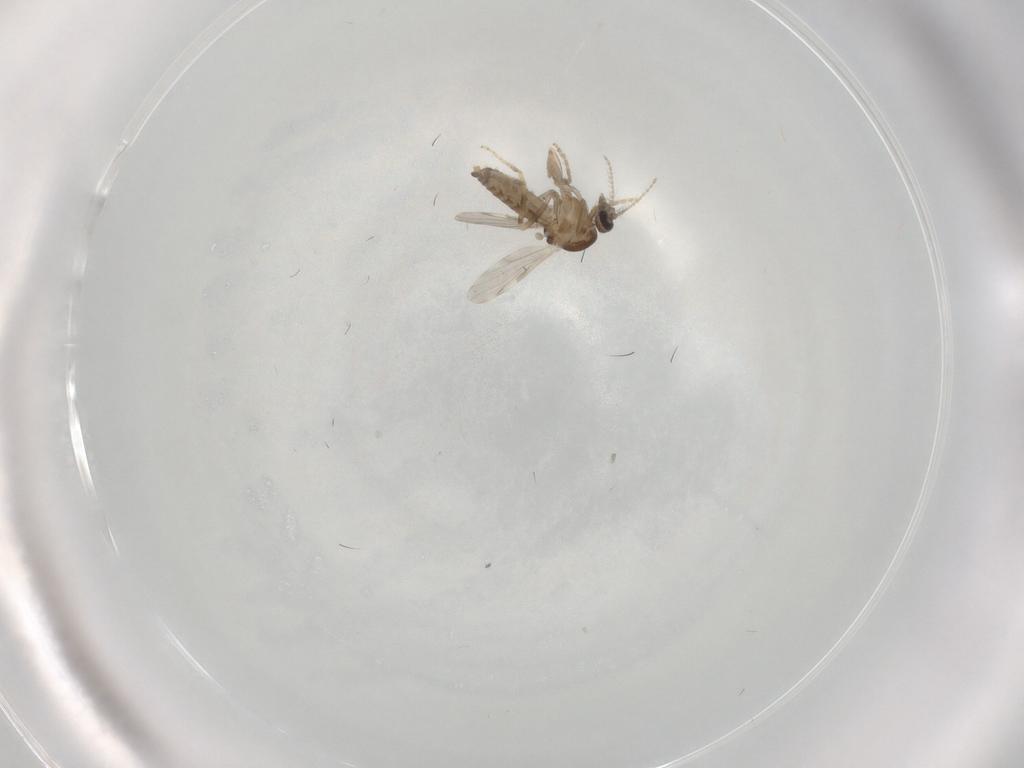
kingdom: Animalia
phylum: Arthropoda
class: Insecta
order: Diptera
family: Ceratopogonidae
